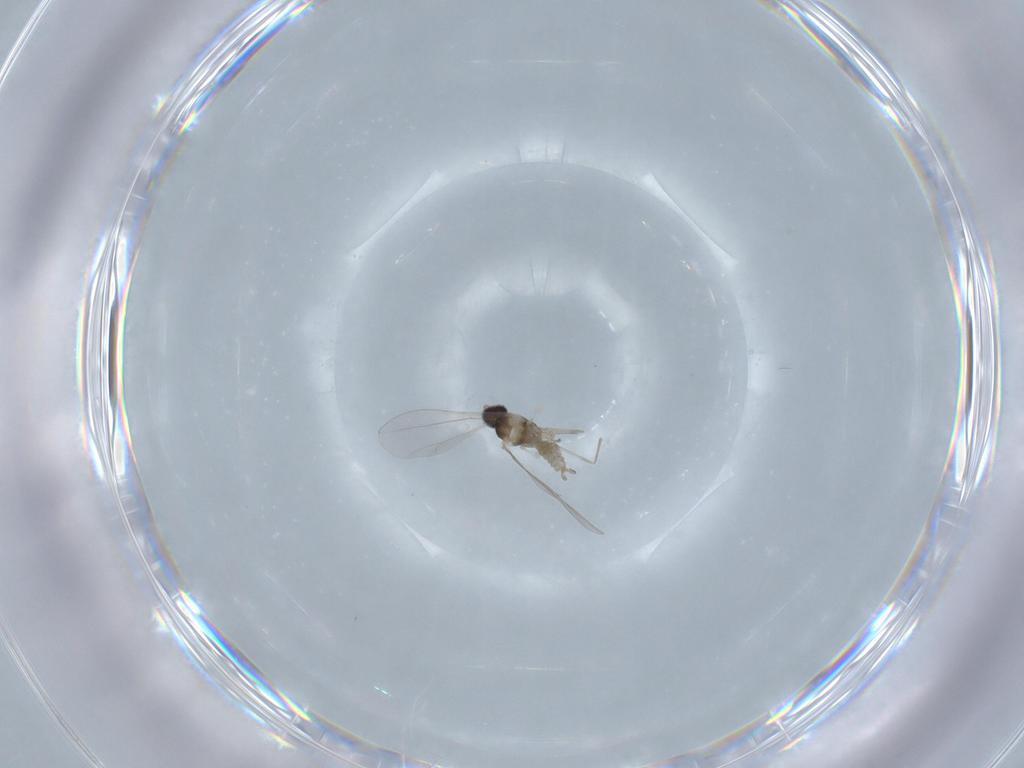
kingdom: Animalia
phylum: Arthropoda
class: Insecta
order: Diptera
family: Cecidomyiidae
